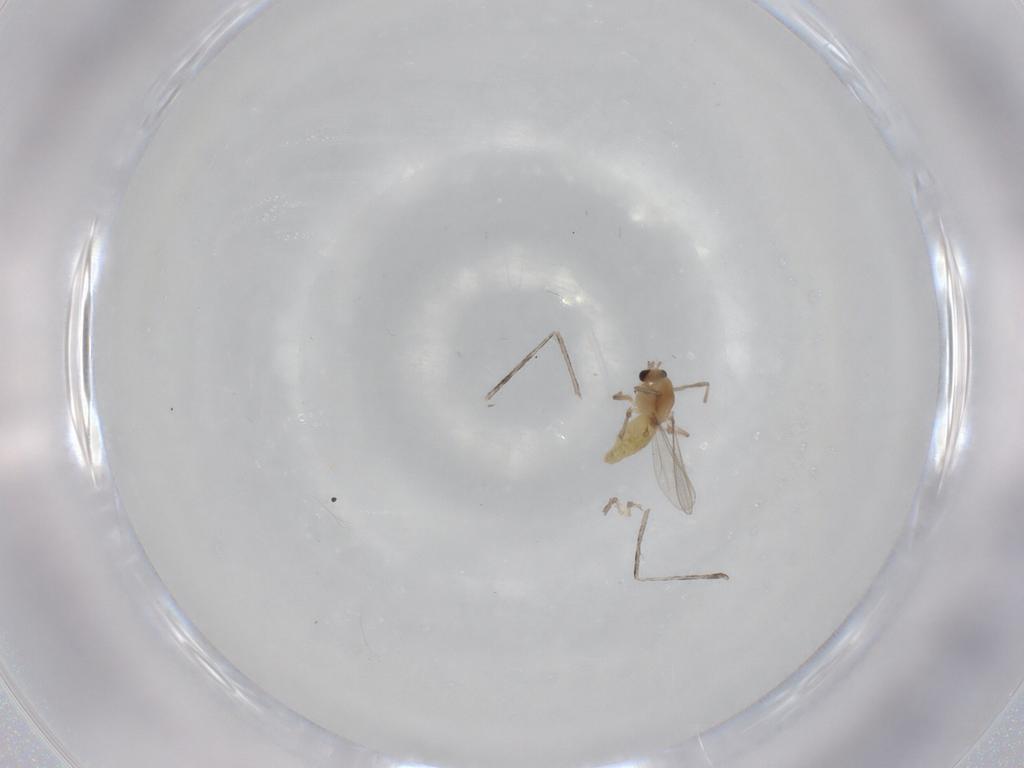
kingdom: Animalia
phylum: Arthropoda
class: Insecta
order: Diptera
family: Chironomidae
